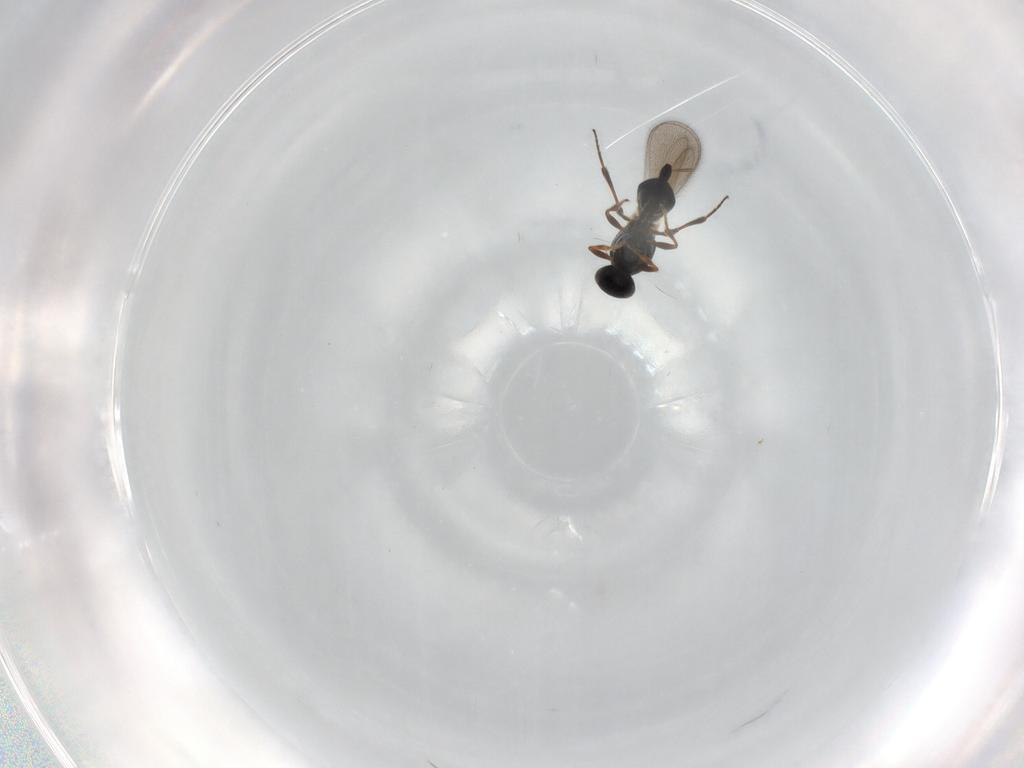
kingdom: Animalia
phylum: Arthropoda
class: Insecta
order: Hymenoptera
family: Platygastridae
